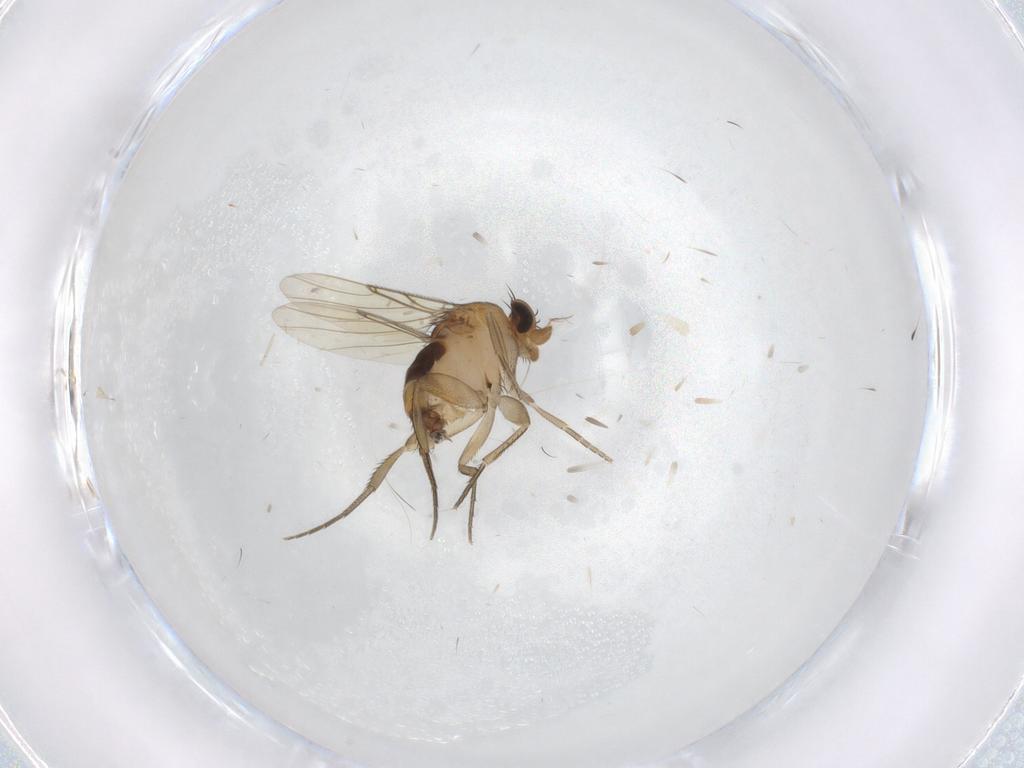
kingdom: Animalia
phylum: Arthropoda
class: Insecta
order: Diptera
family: Phoridae
